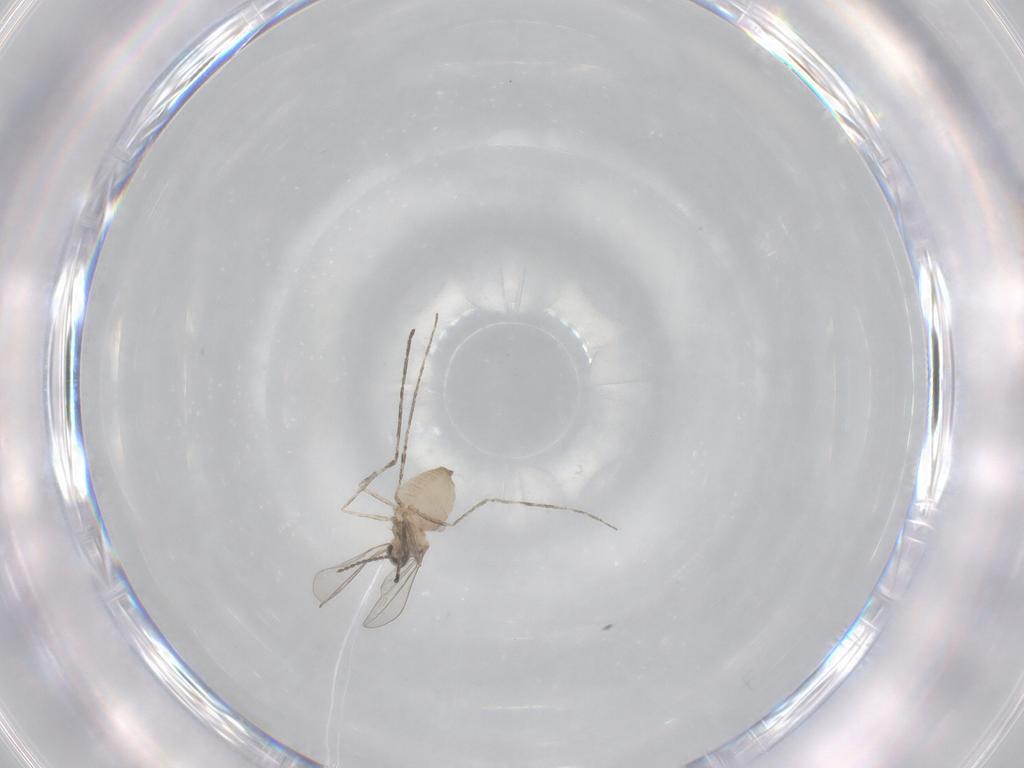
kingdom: Animalia
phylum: Arthropoda
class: Insecta
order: Diptera
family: Cecidomyiidae
